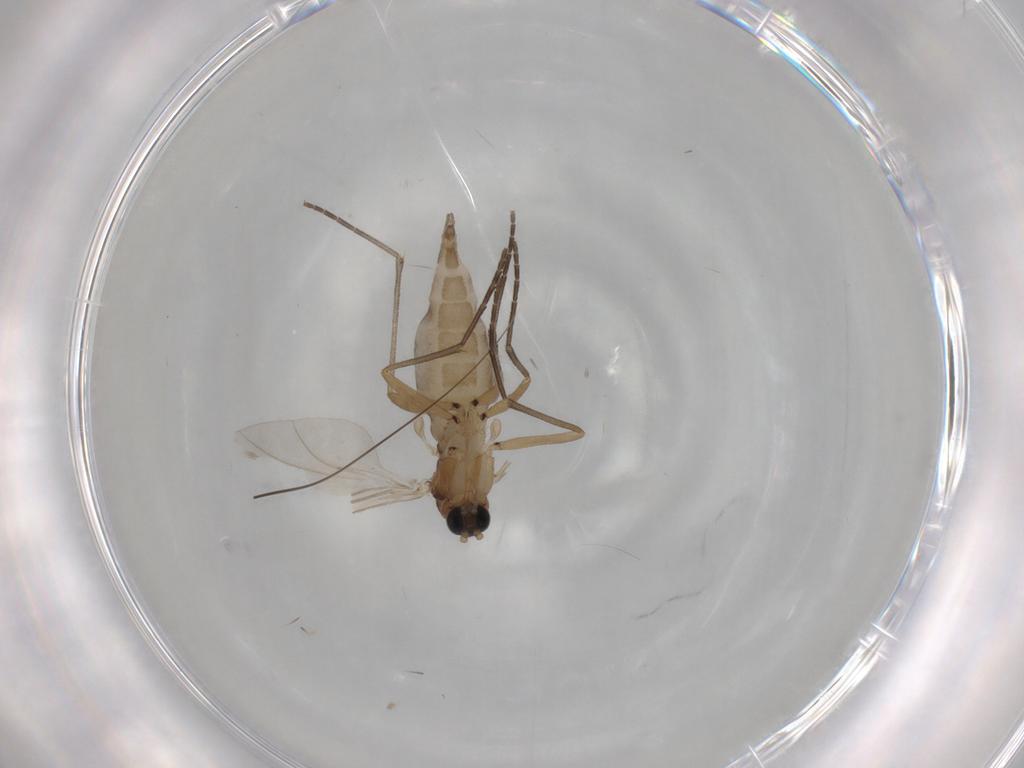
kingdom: Animalia
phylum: Arthropoda
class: Insecta
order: Diptera
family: Sciaridae
